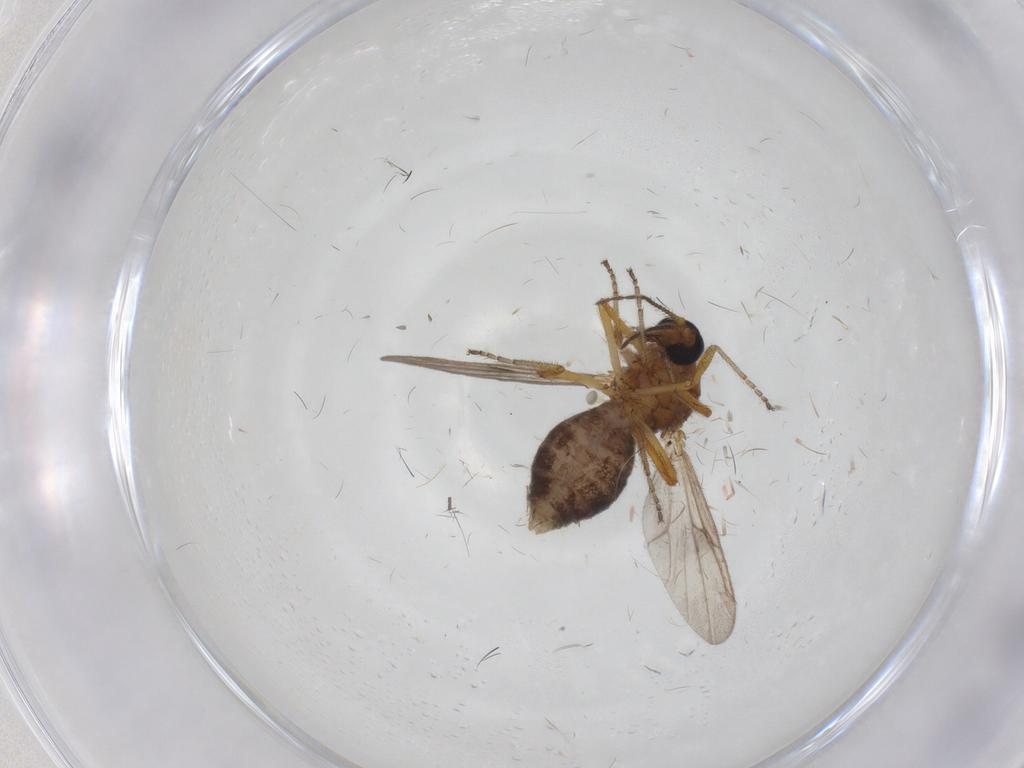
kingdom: Animalia
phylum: Arthropoda
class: Insecta
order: Diptera
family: Ceratopogonidae
